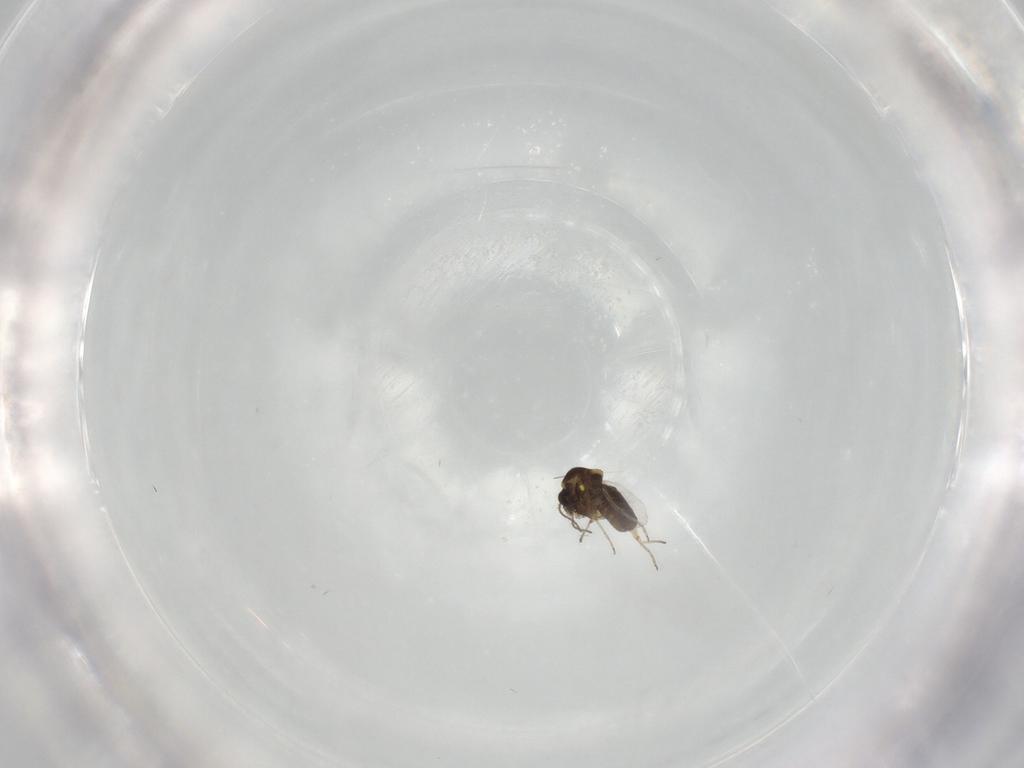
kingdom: Animalia
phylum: Arthropoda
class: Insecta
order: Diptera
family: Ceratopogonidae
